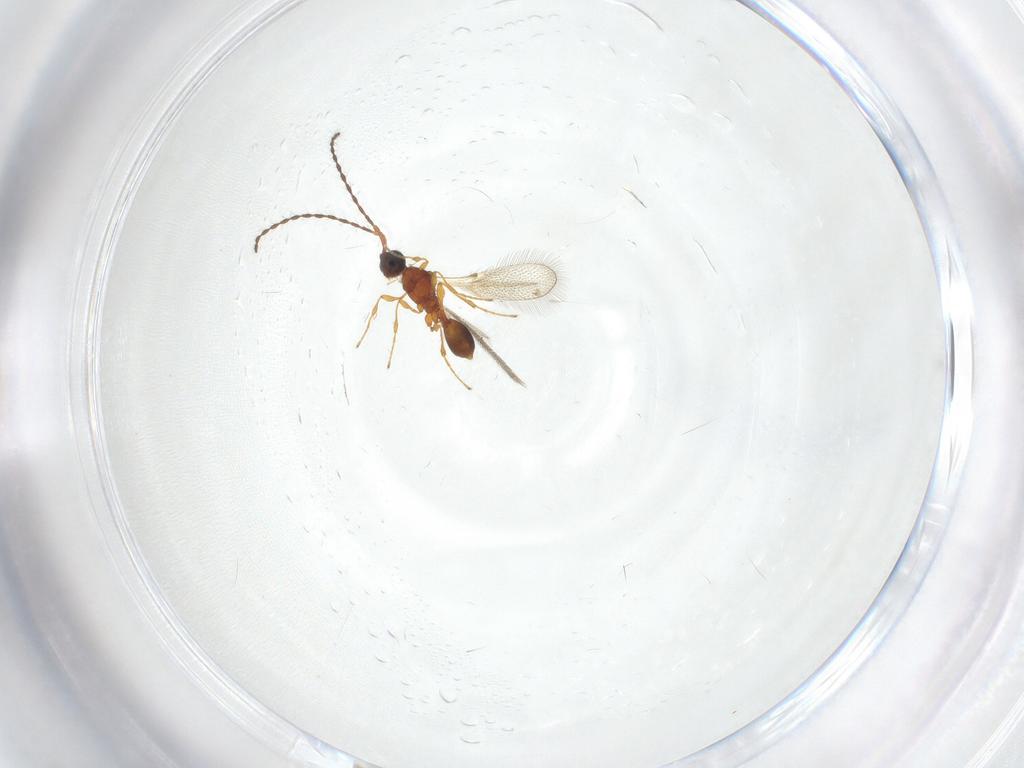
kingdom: Animalia
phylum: Arthropoda
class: Insecta
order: Hymenoptera
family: Diapriidae
